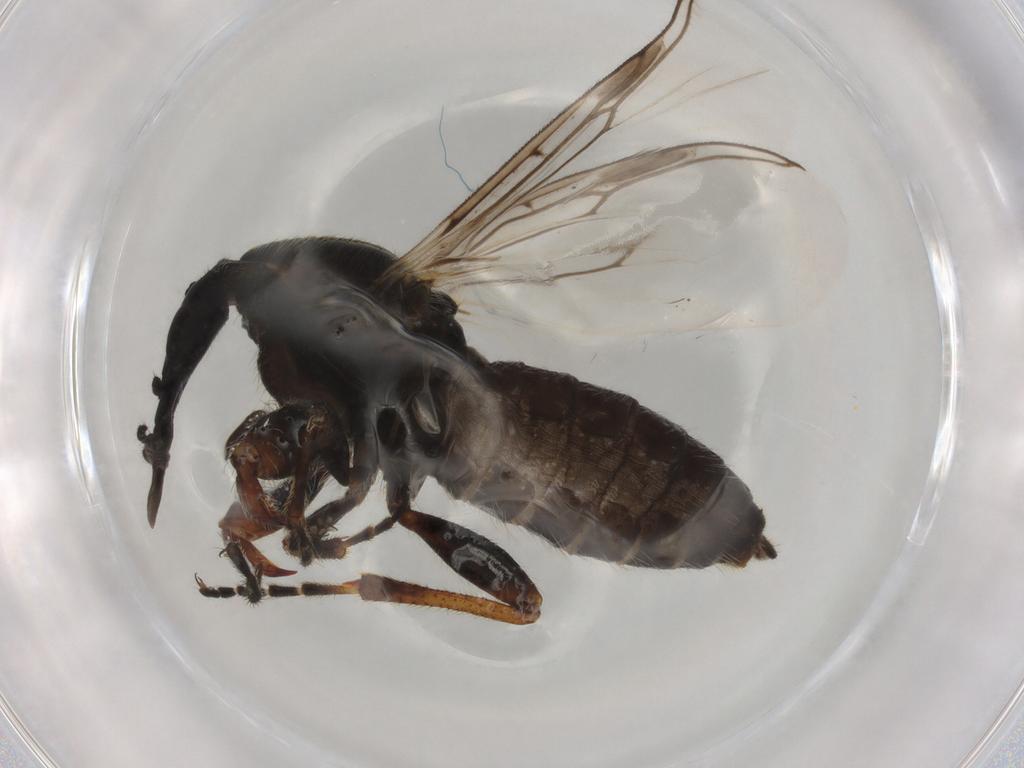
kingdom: Animalia
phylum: Arthropoda
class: Insecta
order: Diptera
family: Bibionidae
